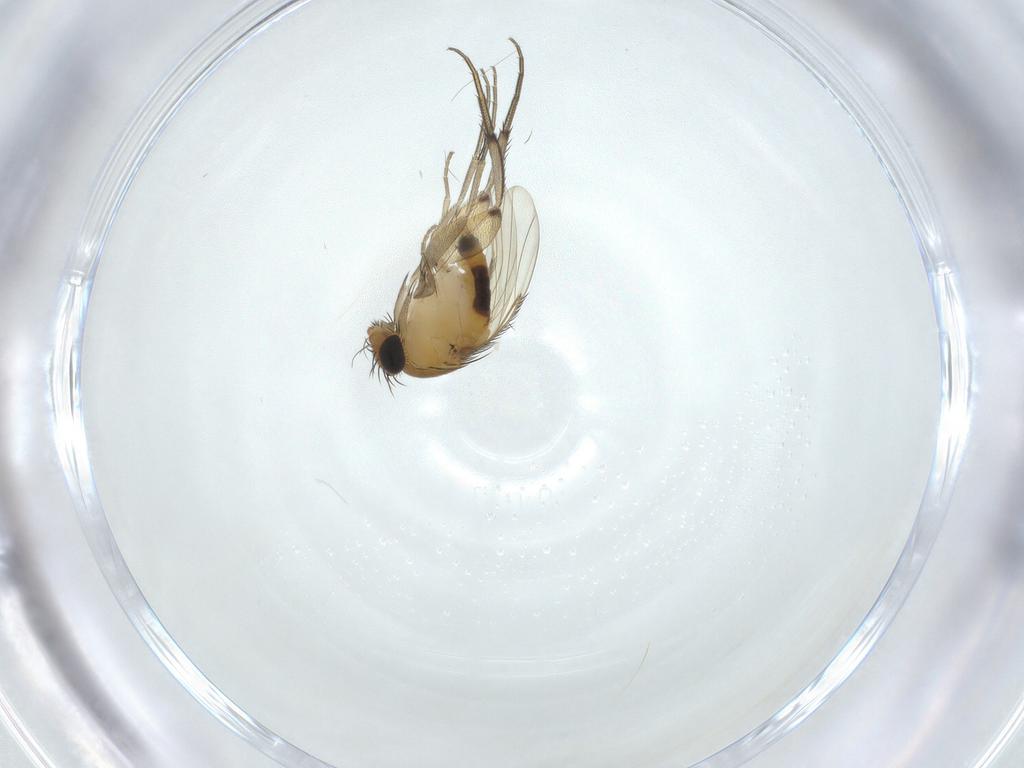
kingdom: Animalia
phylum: Arthropoda
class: Insecta
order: Diptera
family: Phoridae
